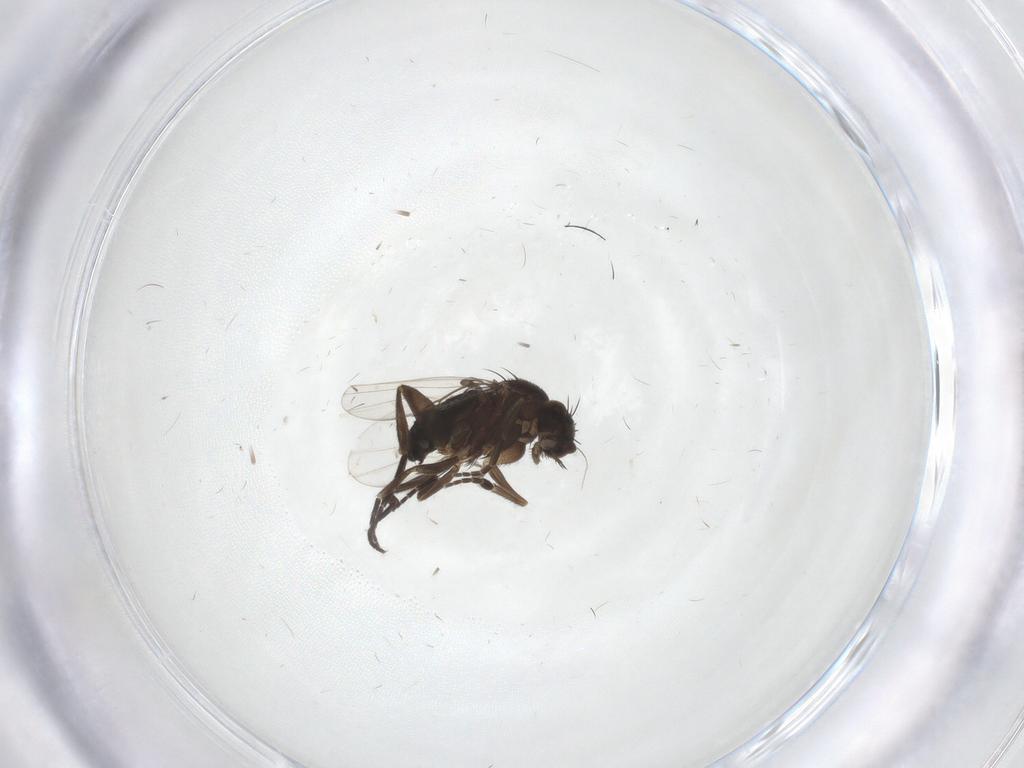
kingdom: Animalia
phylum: Arthropoda
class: Insecta
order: Diptera
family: Phoridae
